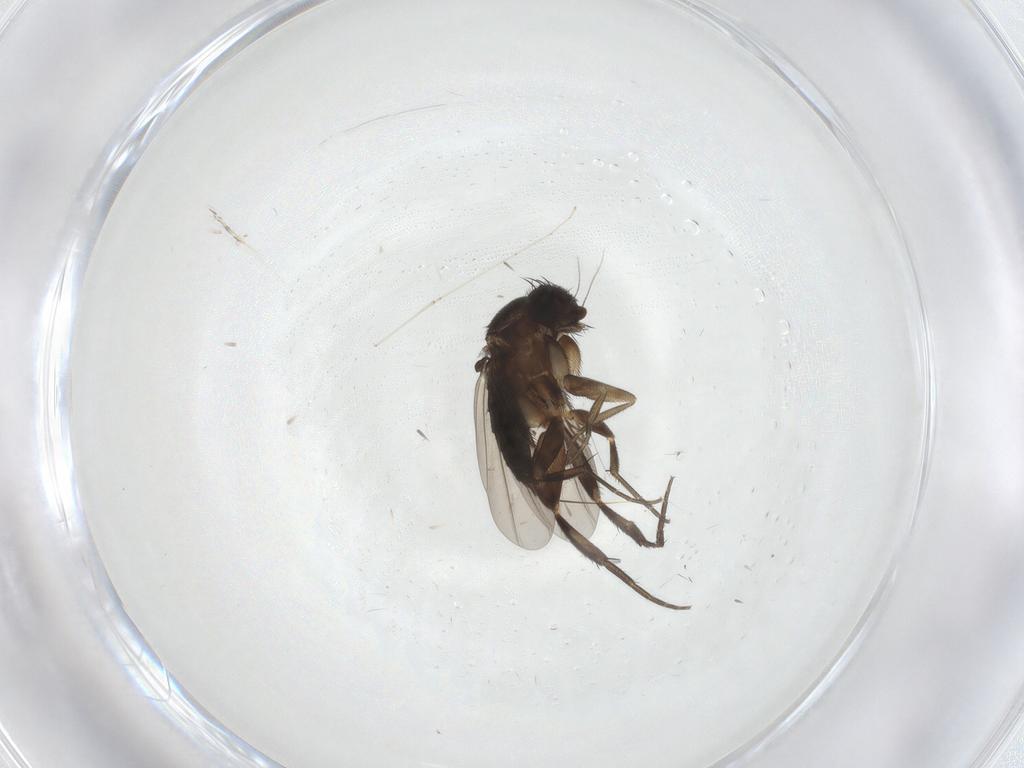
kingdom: Animalia
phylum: Arthropoda
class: Insecta
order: Diptera
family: Phoridae
